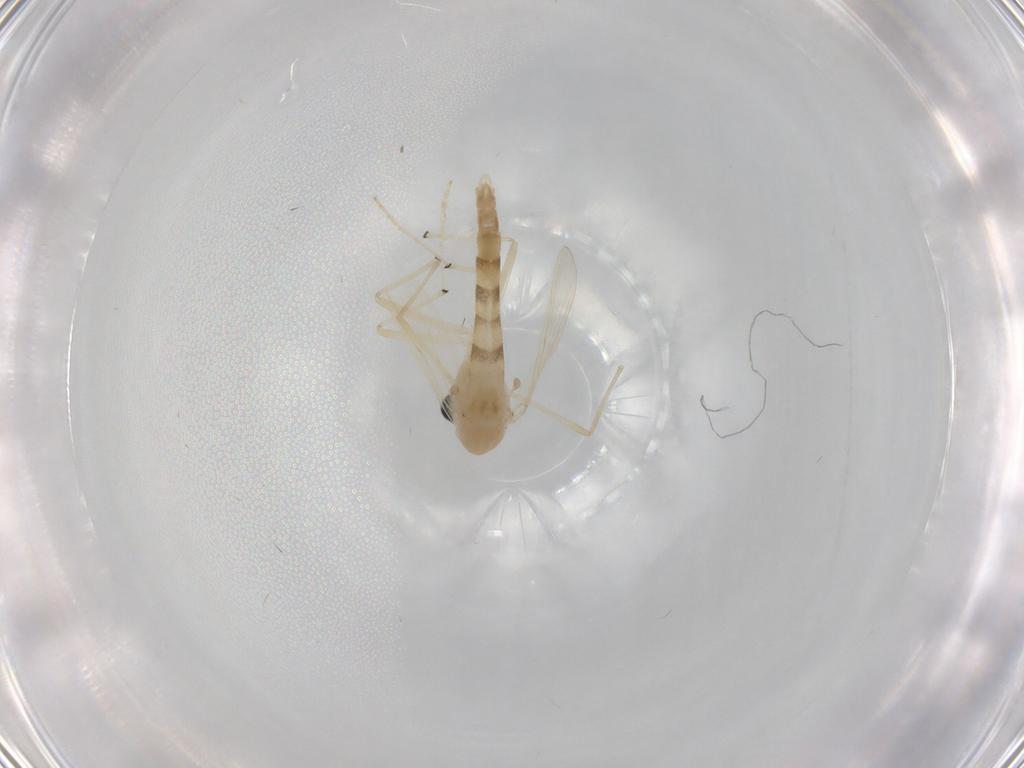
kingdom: Animalia
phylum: Arthropoda
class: Insecta
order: Diptera
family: Chironomidae
